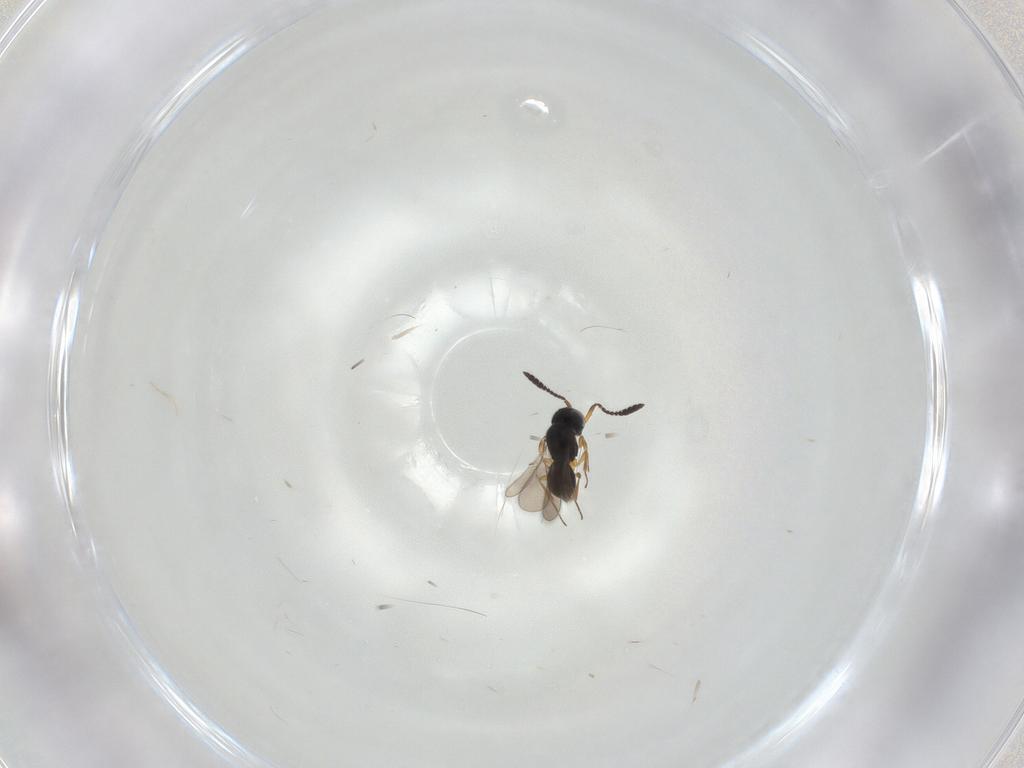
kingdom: Animalia
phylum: Arthropoda
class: Insecta
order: Hymenoptera
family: Scelionidae
